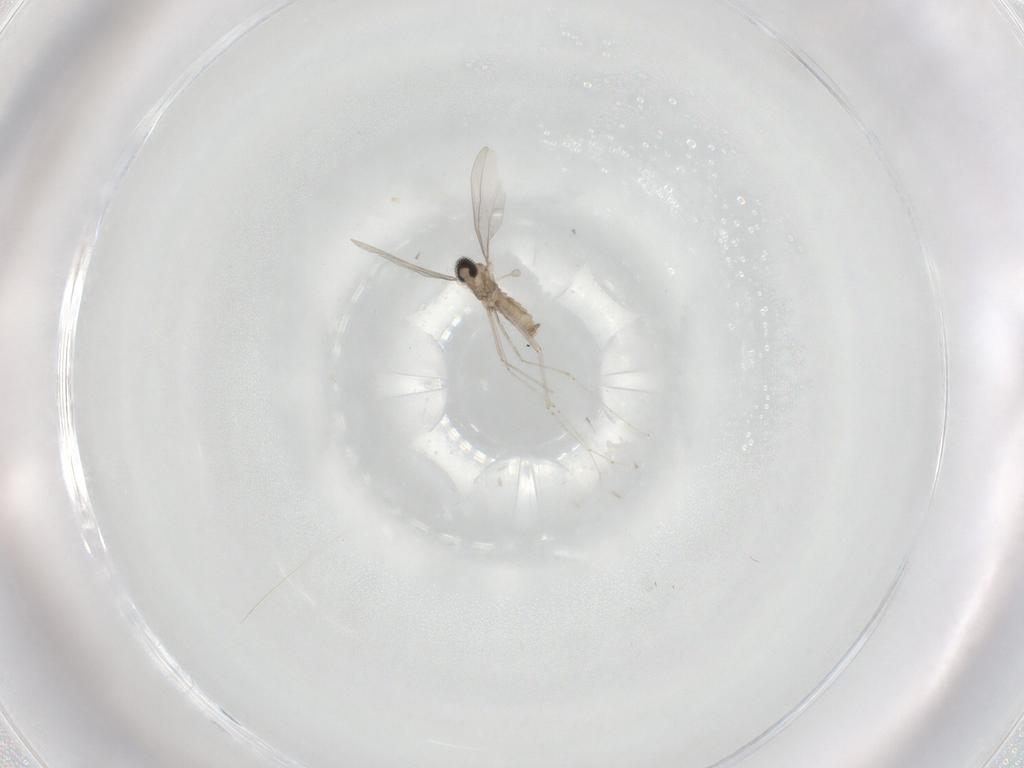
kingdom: Animalia
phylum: Arthropoda
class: Insecta
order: Diptera
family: Cecidomyiidae
